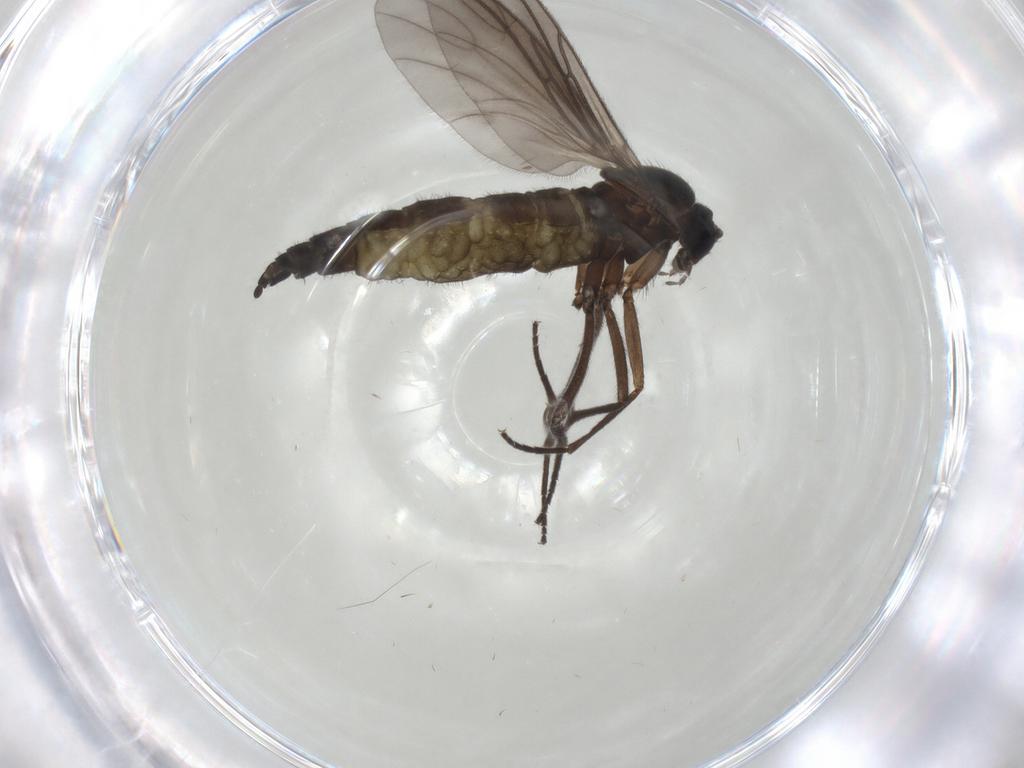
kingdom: Animalia
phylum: Arthropoda
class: Insecta
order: Diptera
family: Sciaridae
